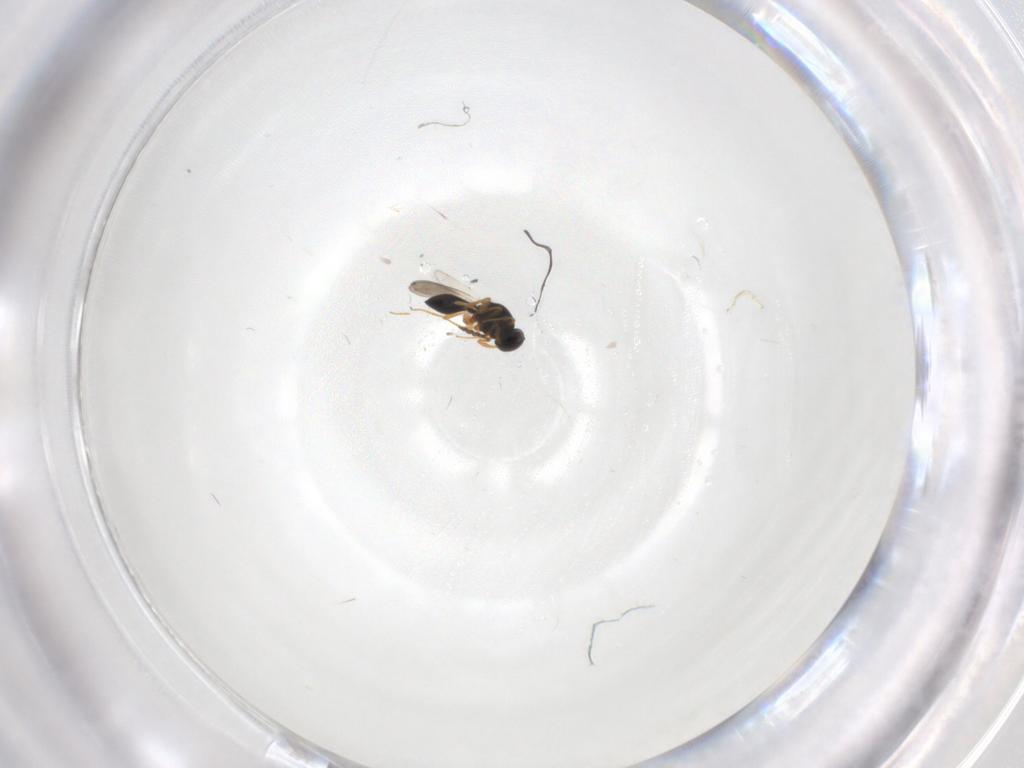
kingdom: Animalia
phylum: Arthropoda
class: Insecta
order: Hymenoptera
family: Platygastridae
